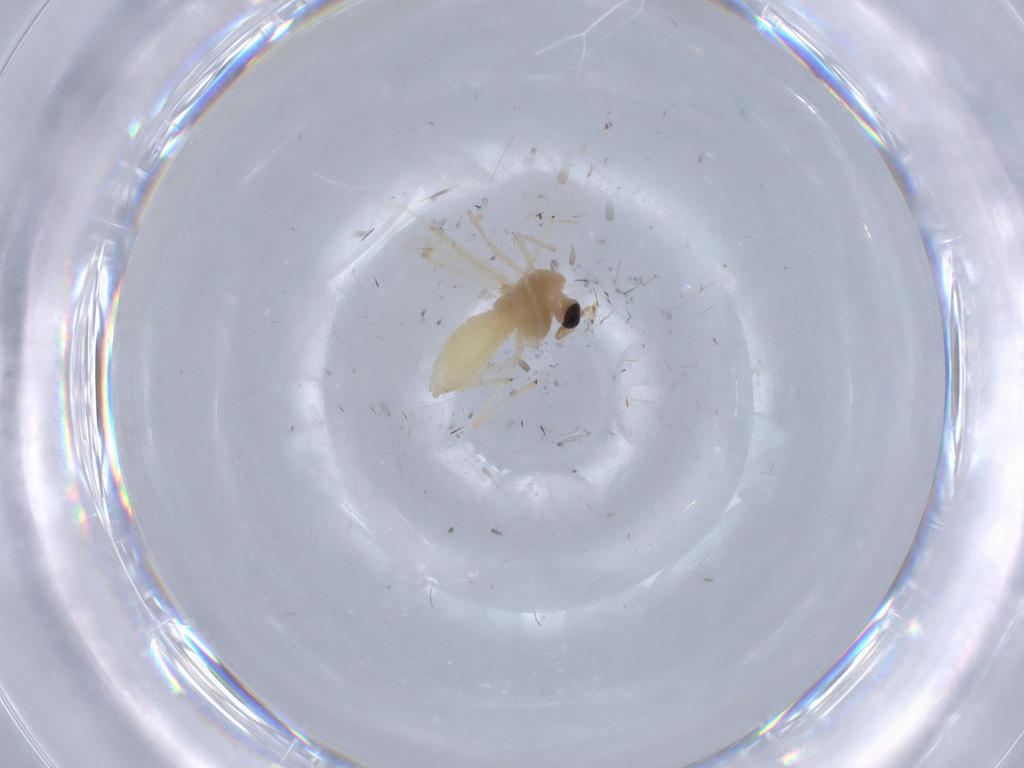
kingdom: Animalia
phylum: Arthropoda
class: Insecta
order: Diptera
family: Chironomidae
